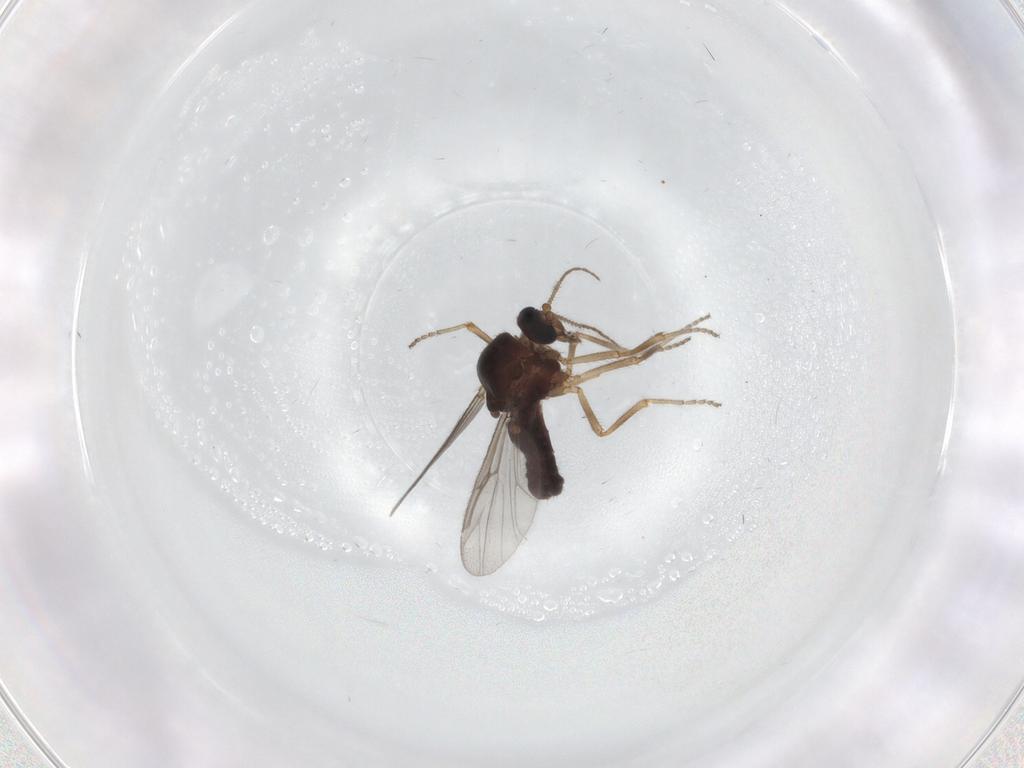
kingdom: Animalia
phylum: Arthropoda
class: Insecta
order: Diptera
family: Ceratopogonidae
